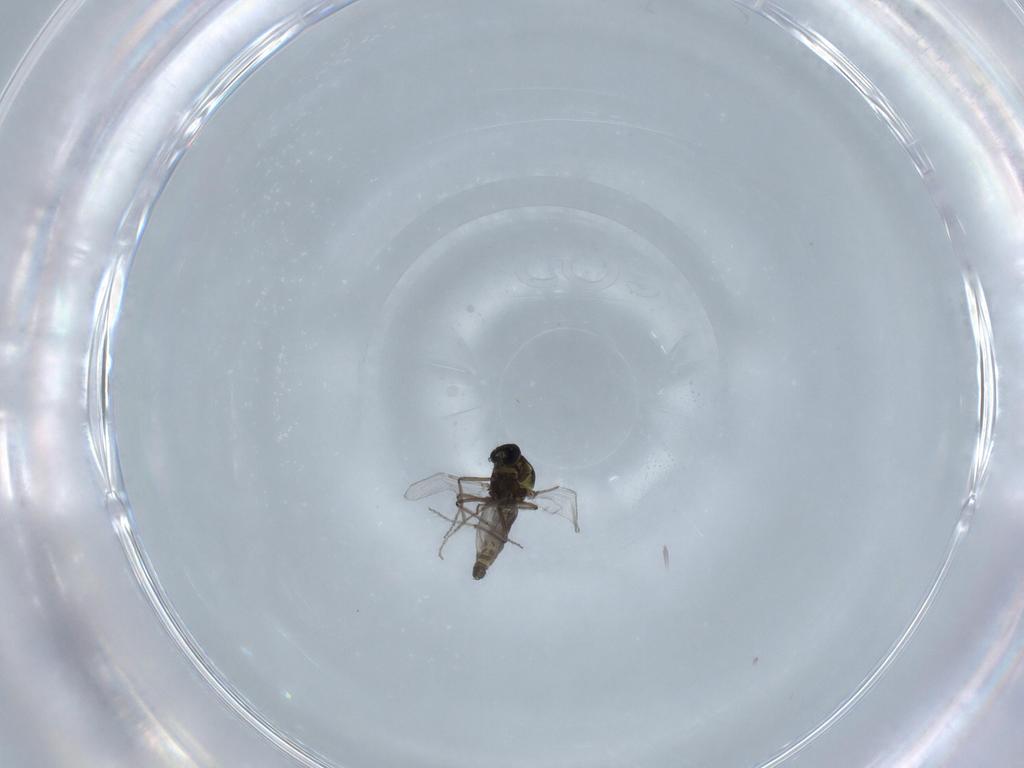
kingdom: Animalia
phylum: Arthropoda
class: Insecta
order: Diptera
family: Ceratopogonidae
